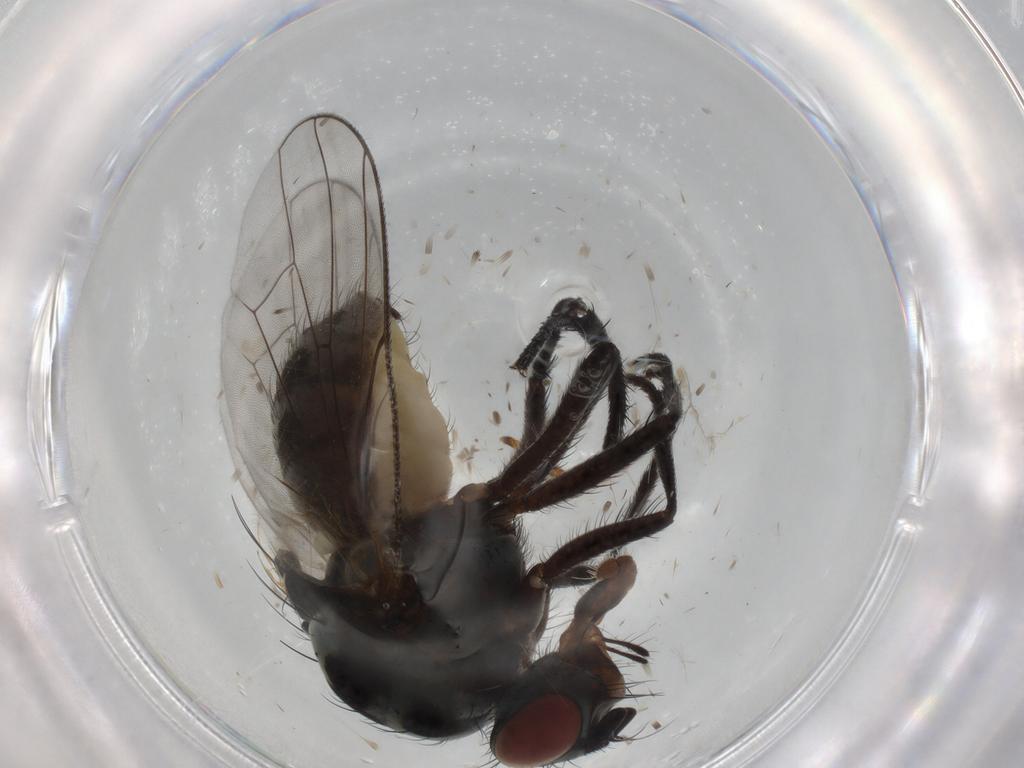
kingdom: Animalia
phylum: Arthropoda
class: Insecta
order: Diptera
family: Anthomyiidae
